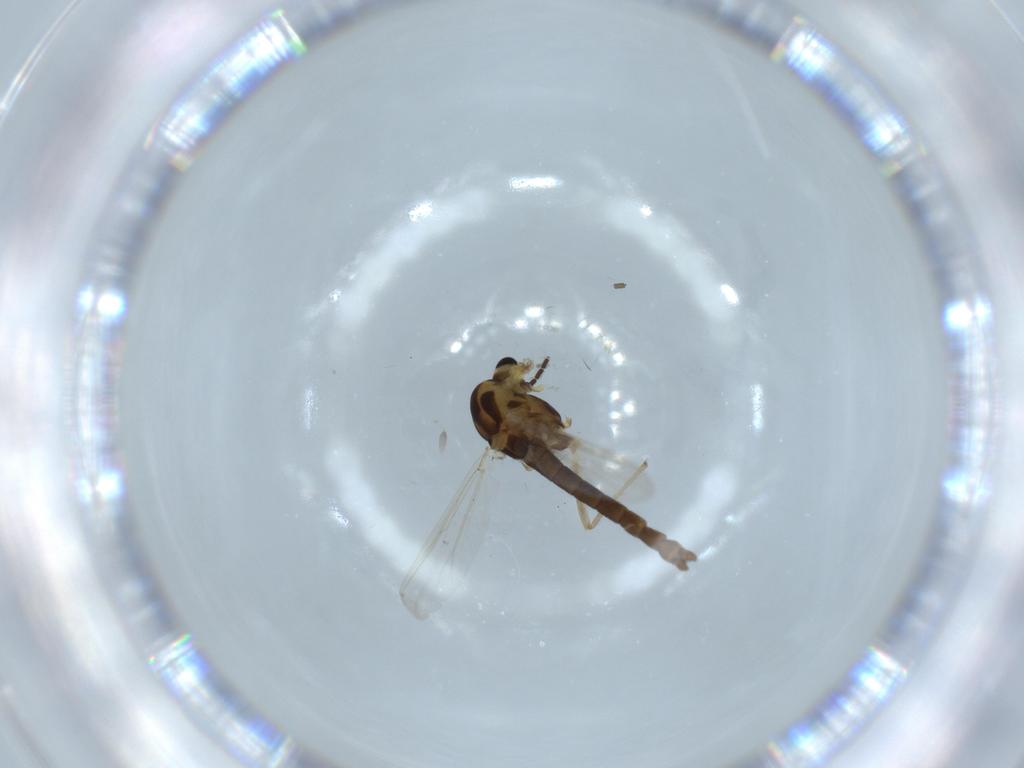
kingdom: Animalia
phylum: Arthropoda
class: Insecta
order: Diptera
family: Chironomidae
